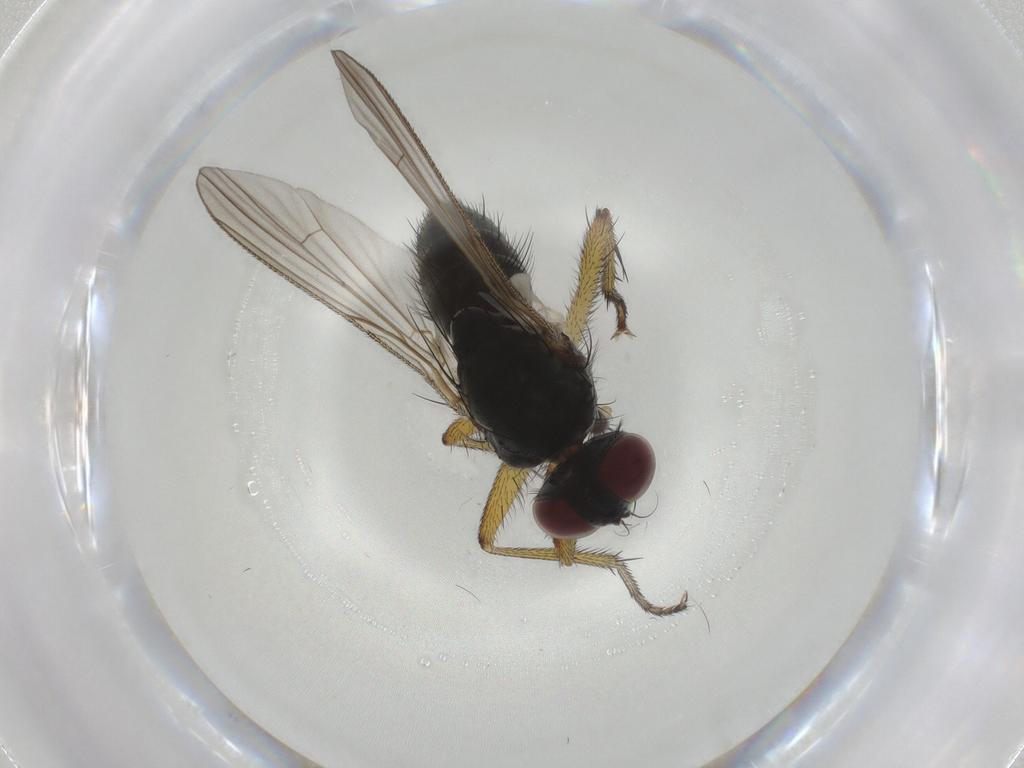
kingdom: Animalia
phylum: Arthropoda
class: Insecta
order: Diptera
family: Muscidae
